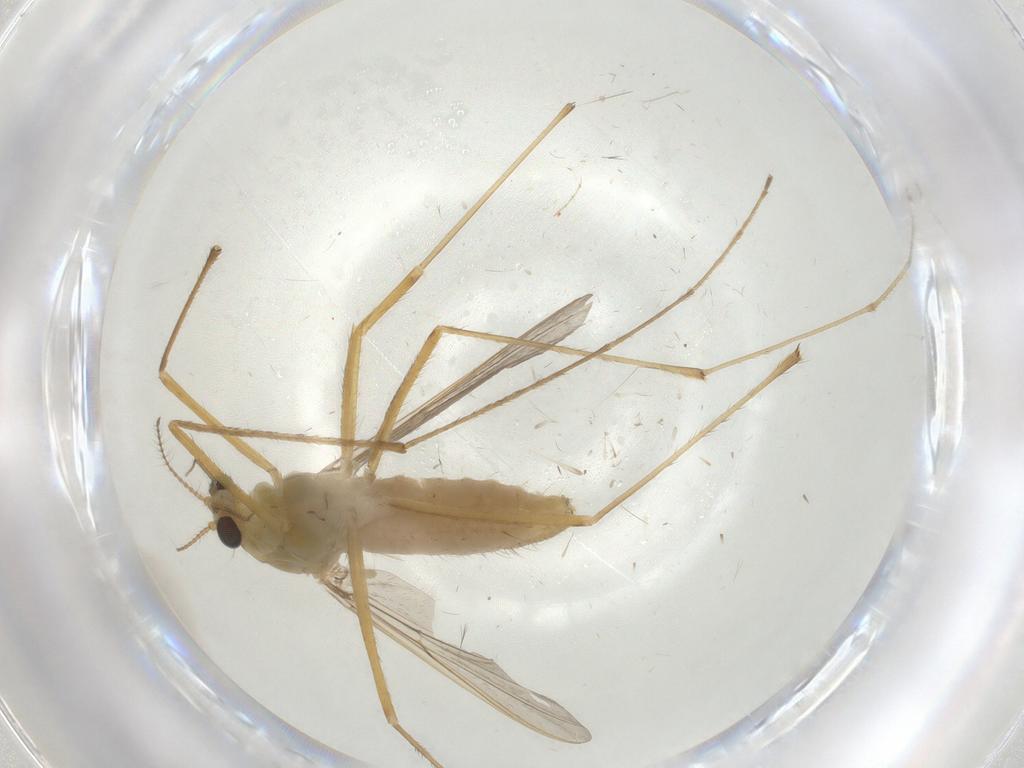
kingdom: Animalia
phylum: Arthropoda
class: Insecta
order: Diptera
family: Chironomidae
